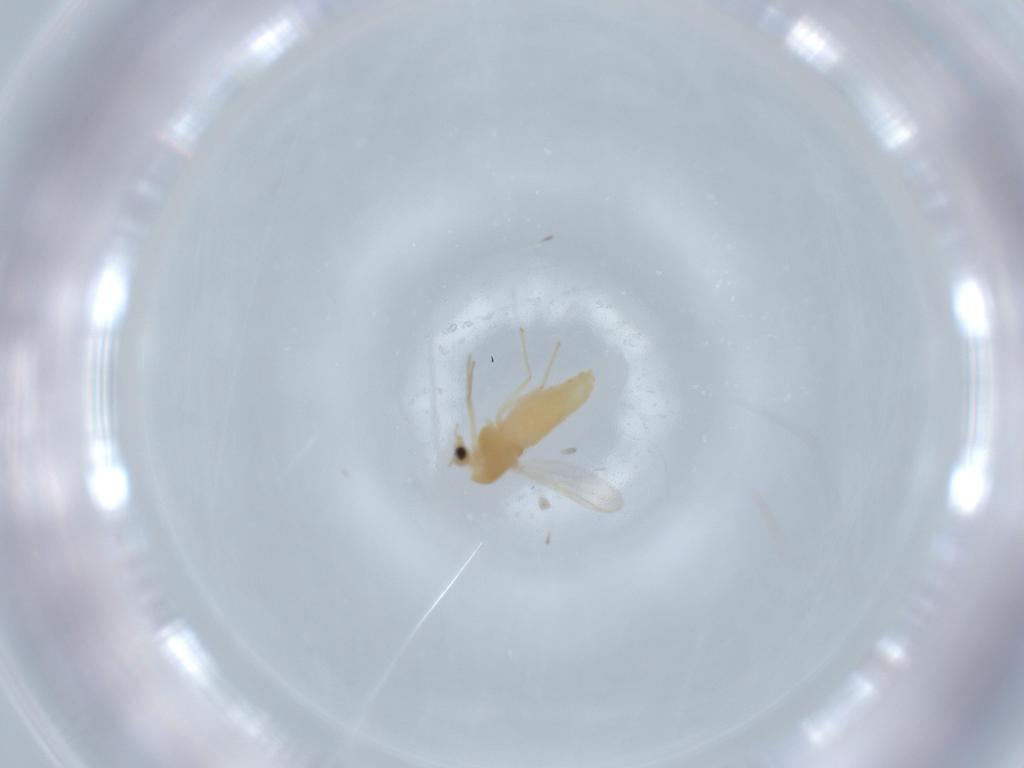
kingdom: Animalia
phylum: Arthropoda
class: Insecta
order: Diptera
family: Chironomidae
